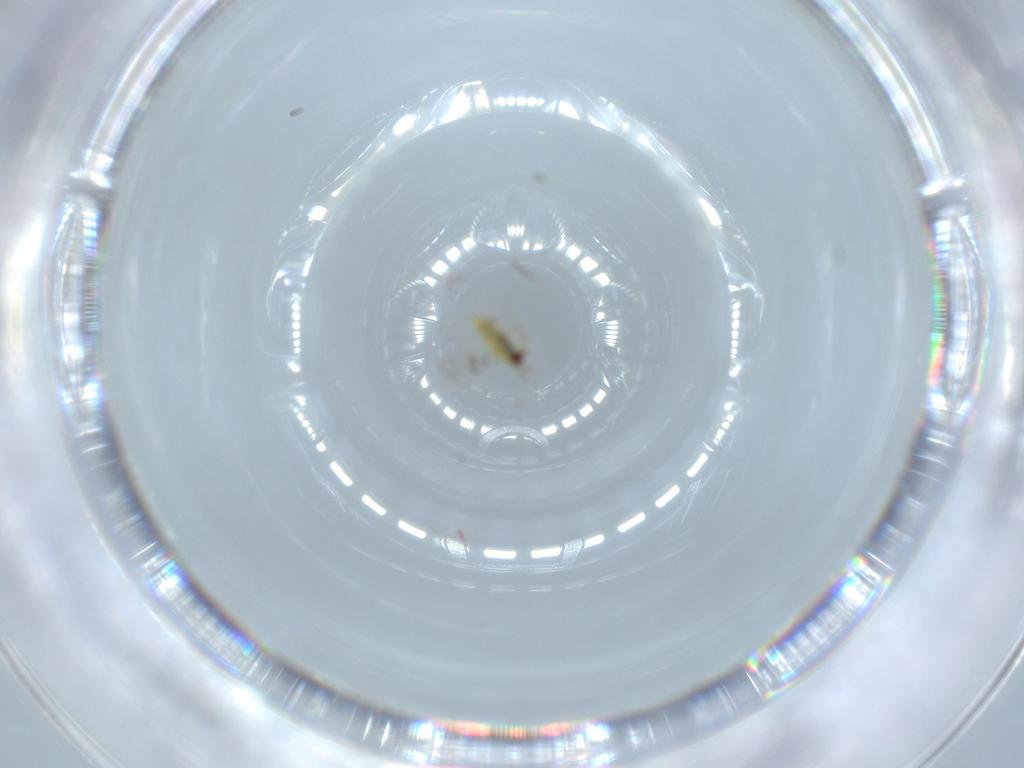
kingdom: Animalia
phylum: Arthropoda
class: Insecta
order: Hymenoptera
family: Trichogrammatidae
